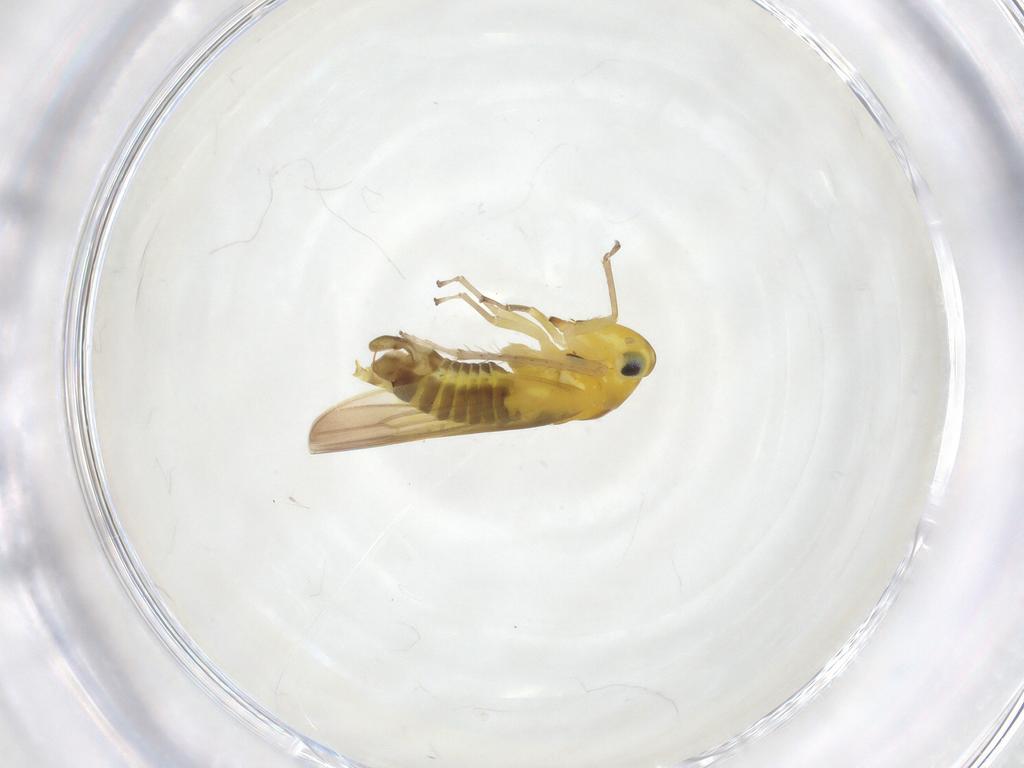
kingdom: Animalia
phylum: Arthropoda
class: Insecta
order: Hemiptera
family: Cicadellidae
